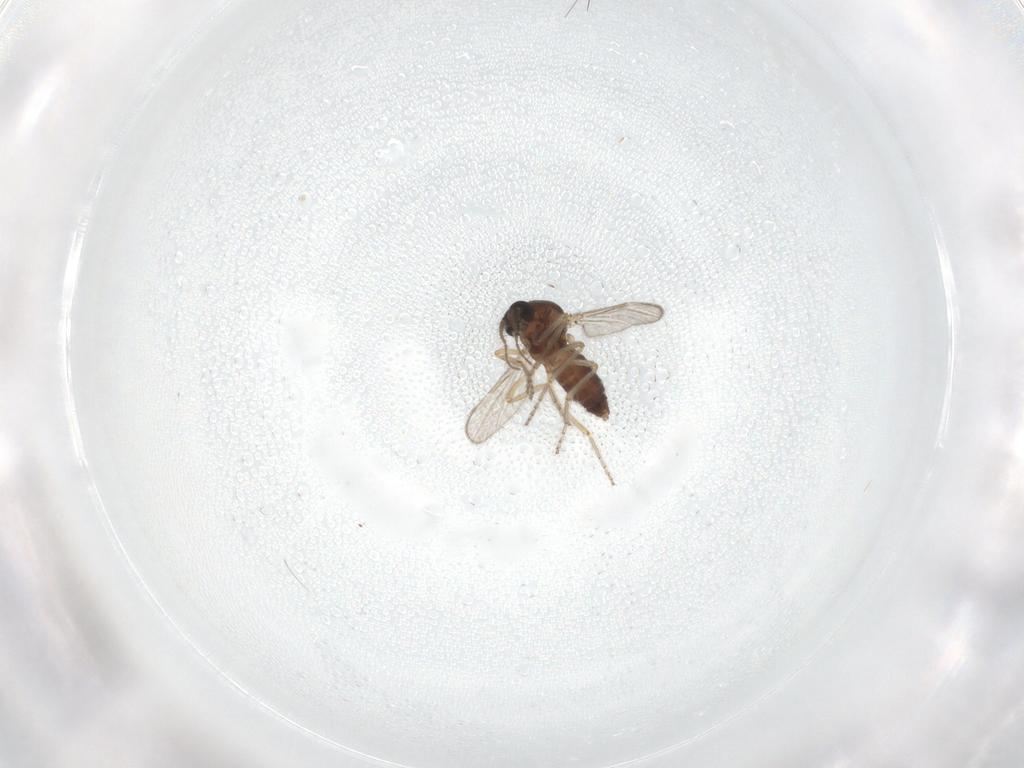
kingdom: Animalia
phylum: Arthropoda
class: Insecta
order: Diptera
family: Ceratopogonidae
